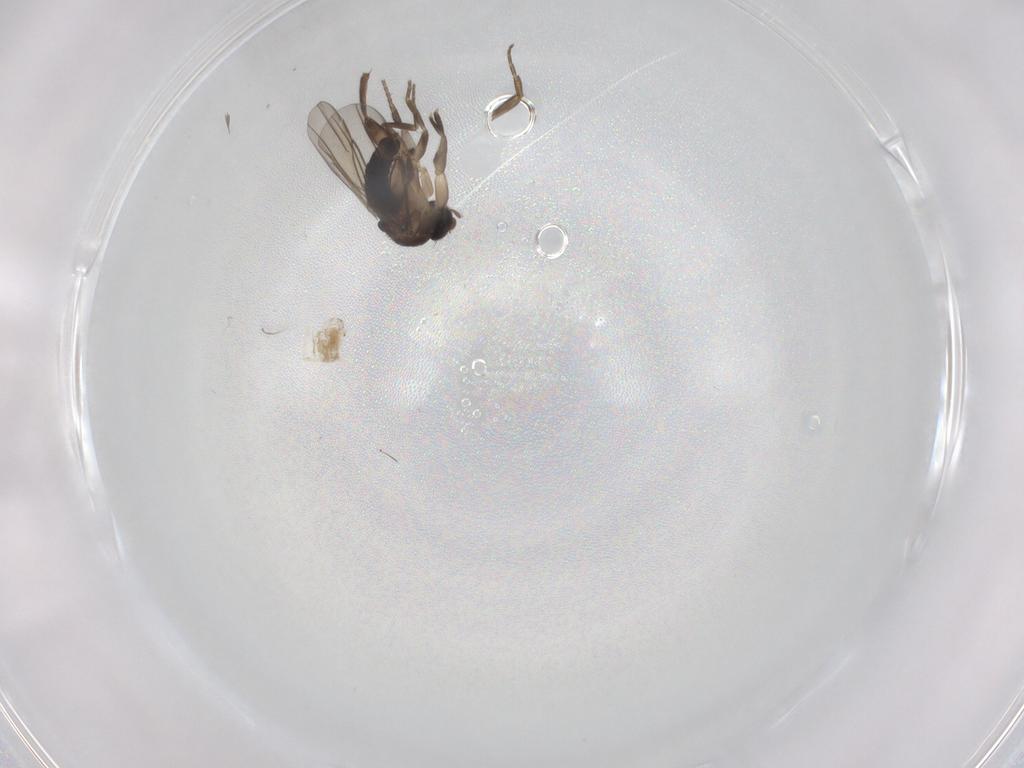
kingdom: Animalia
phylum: Arthropoda
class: Insecta
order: Diptera
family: Phoridae
